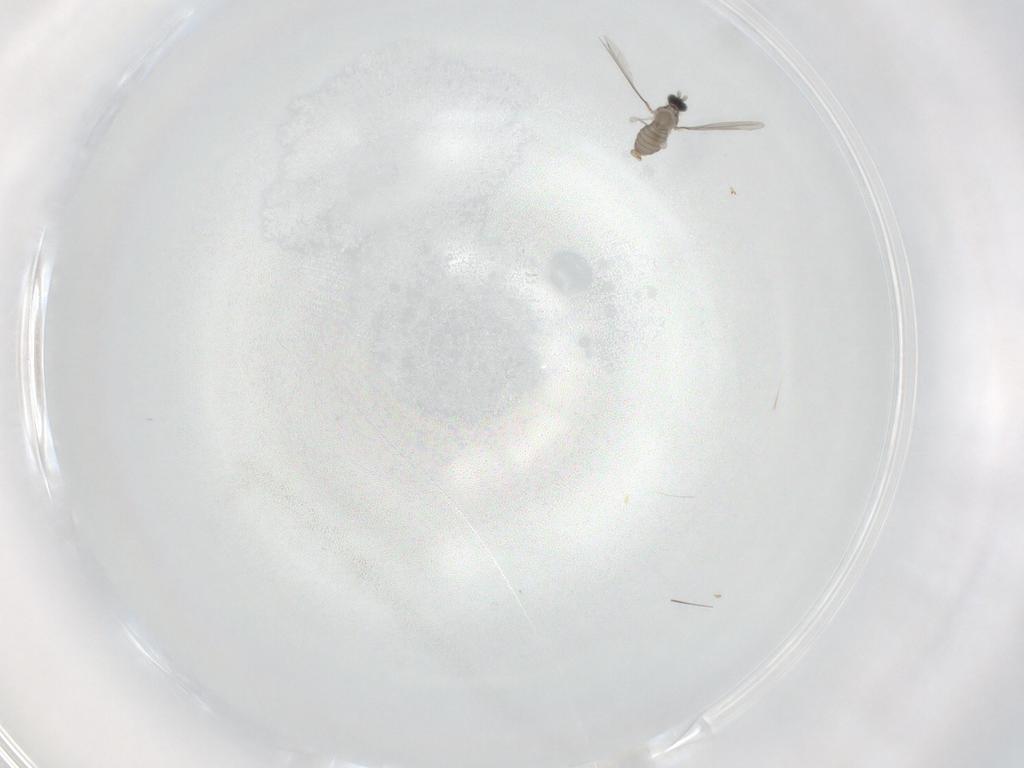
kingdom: Animalia
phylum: Arthropoda
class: Insecta
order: Diptera
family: Cecidomyiidae
